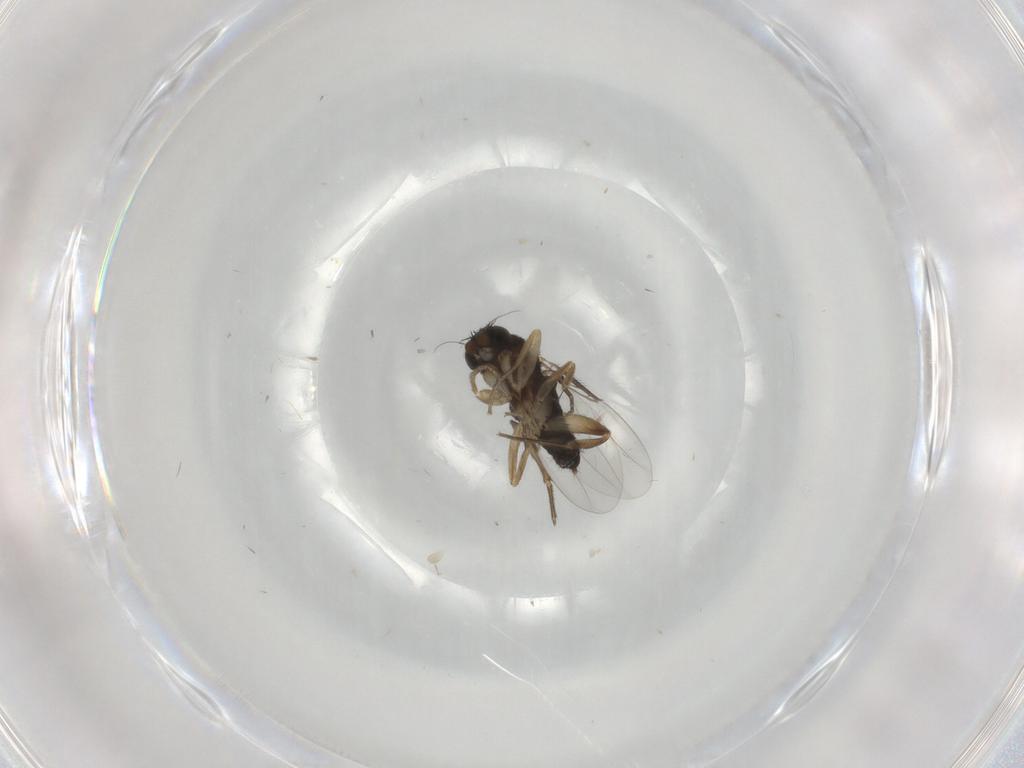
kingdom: Animalia
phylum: Arthropoda
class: Insecta
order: Diptera
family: Phoridae
